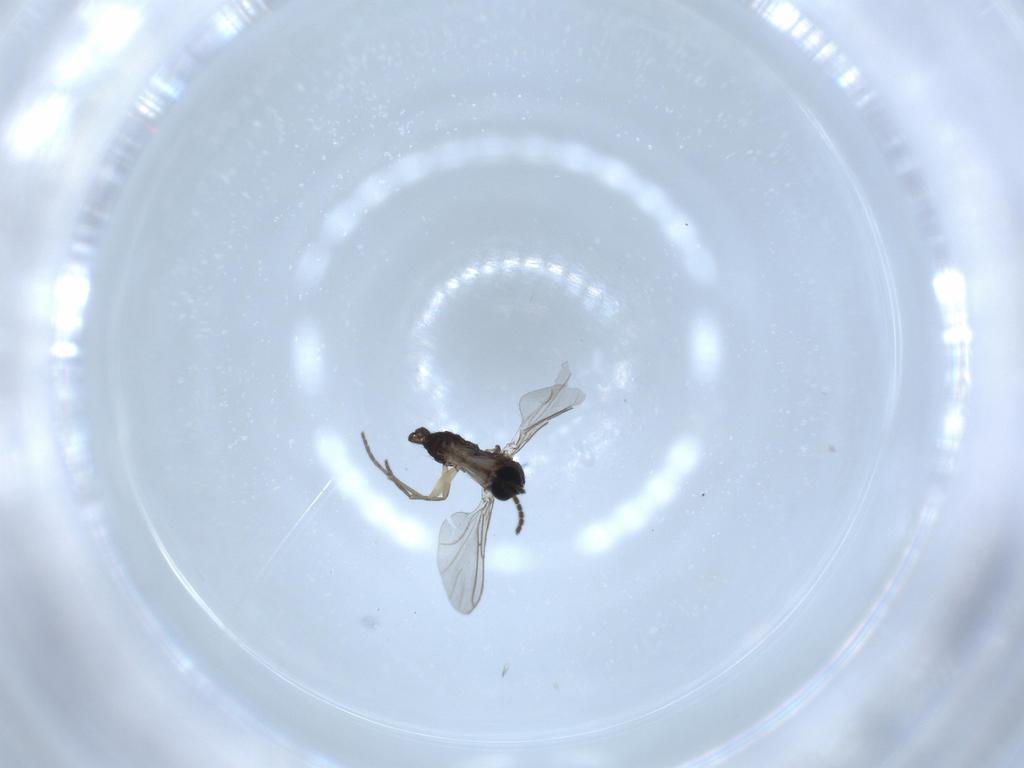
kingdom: Animalia
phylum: Arthropoda
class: Insecta
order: Diptera
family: Sciaridae
